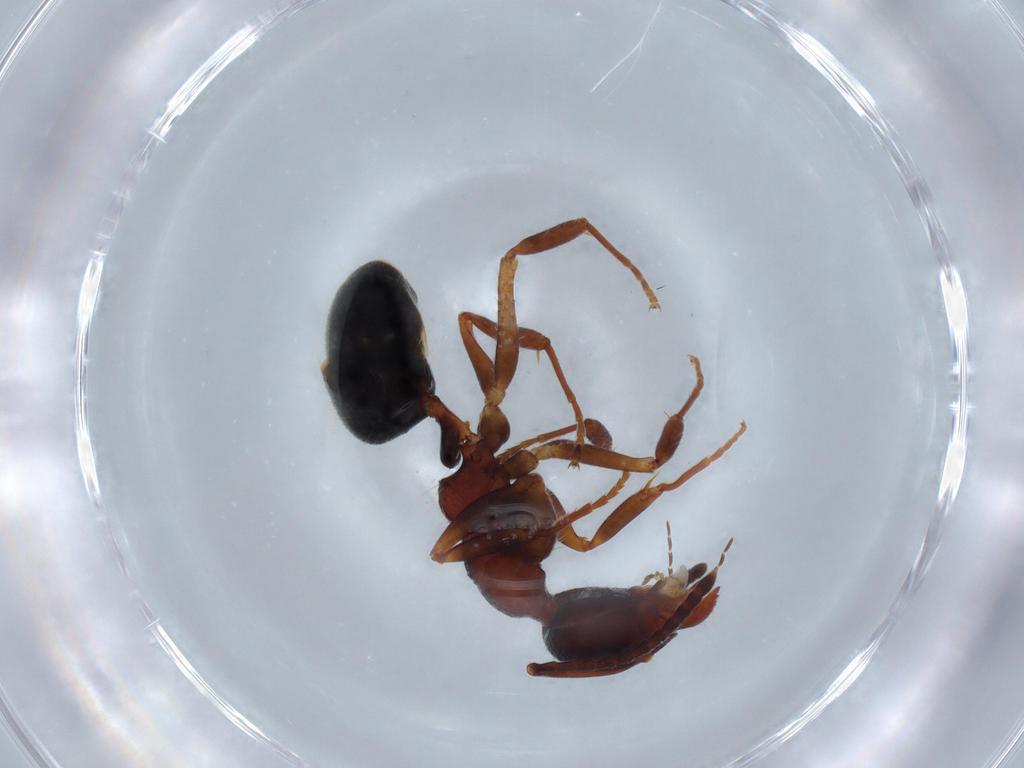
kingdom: Animalia
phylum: Arthropoda
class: Insecta
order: Hymenoptera
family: Formicidae
